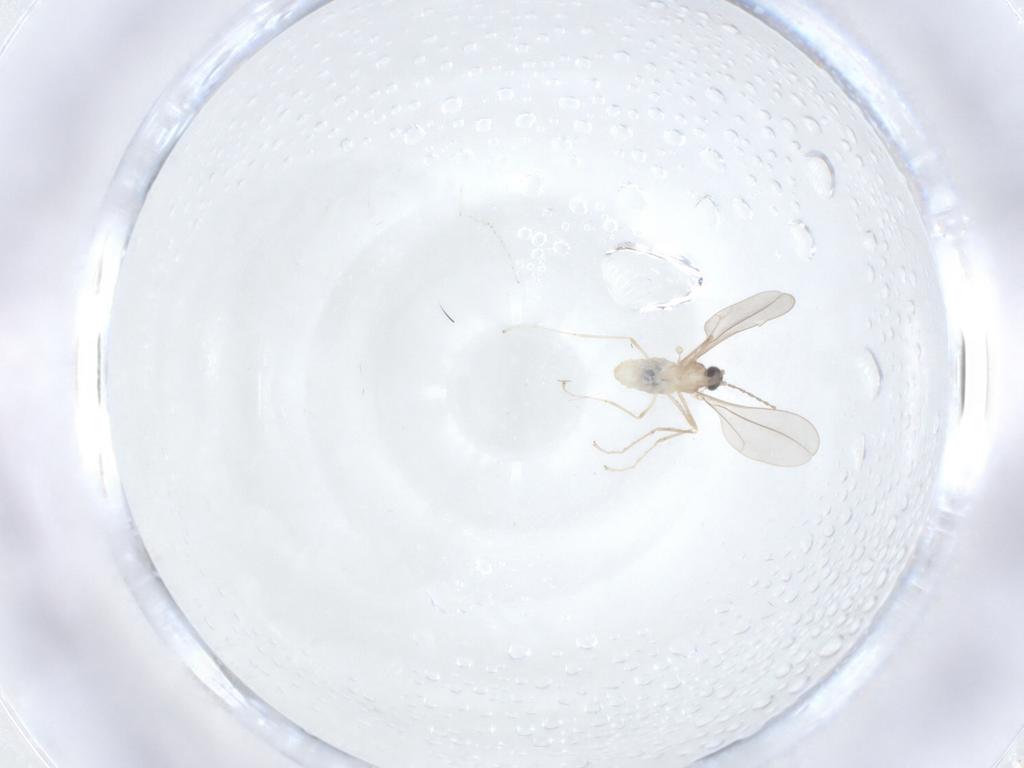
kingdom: Animalia
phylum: Arthropoda
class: Insecta
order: Diptera
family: Cecidomyiidae
